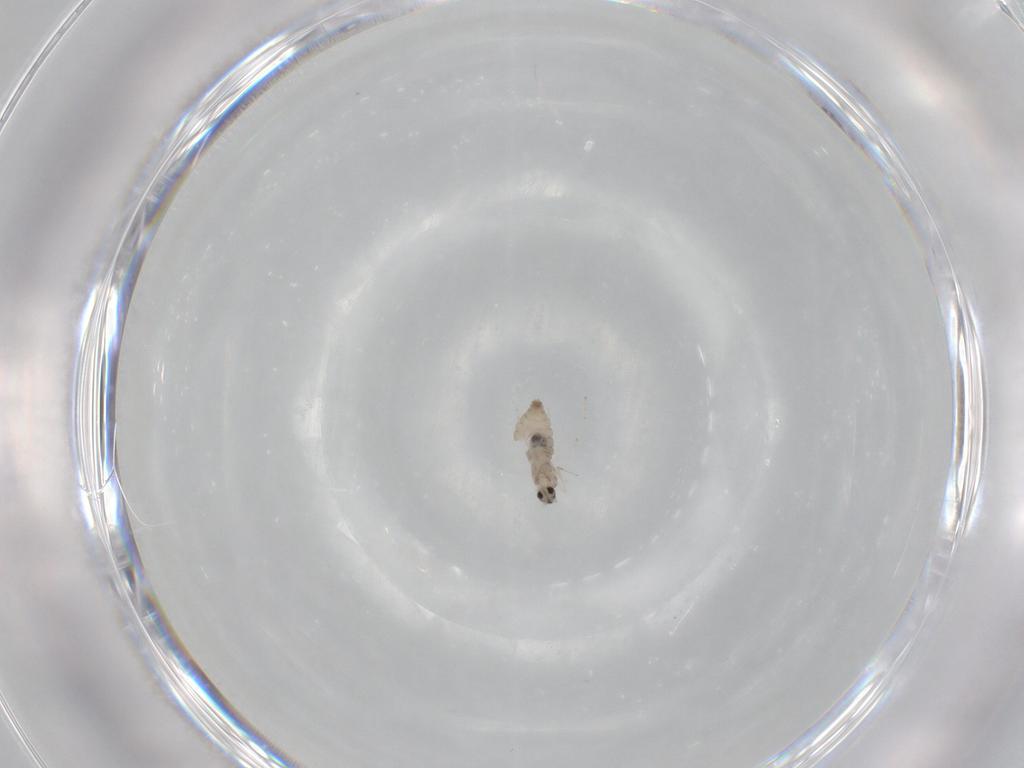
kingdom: Animalia
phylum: Arthropoda
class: Insecta
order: Diptera
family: Cecidomyiidae
